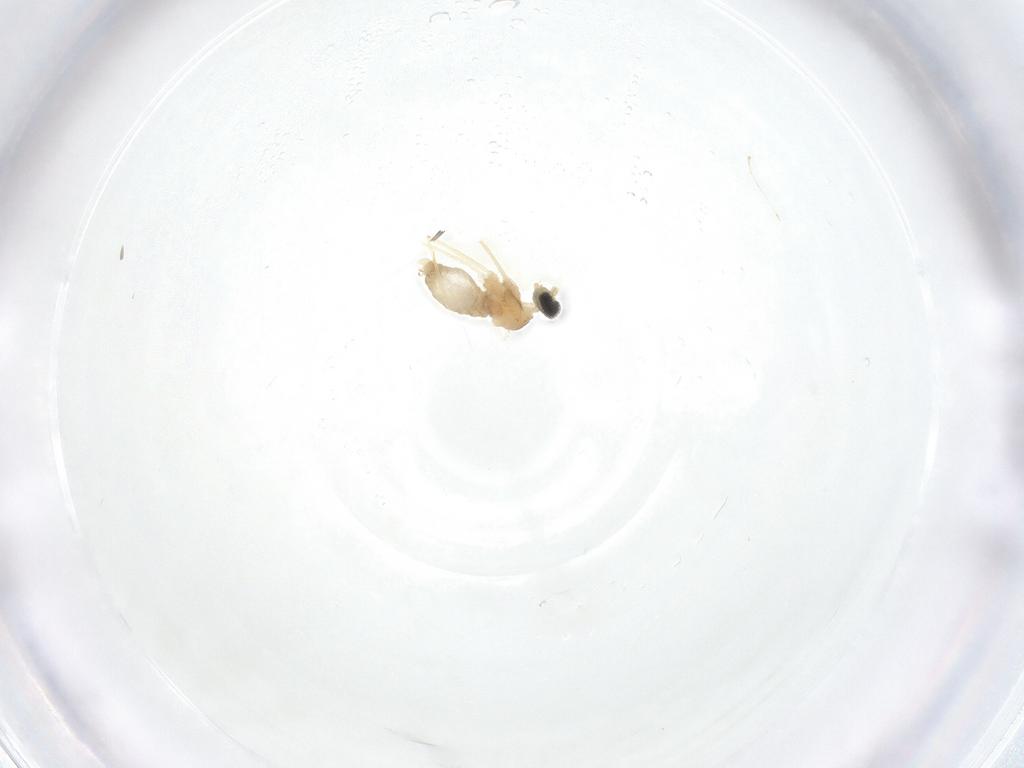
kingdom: Animalia
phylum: Arthropoda
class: Insecta
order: Diptera
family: Cecidomyiidae
